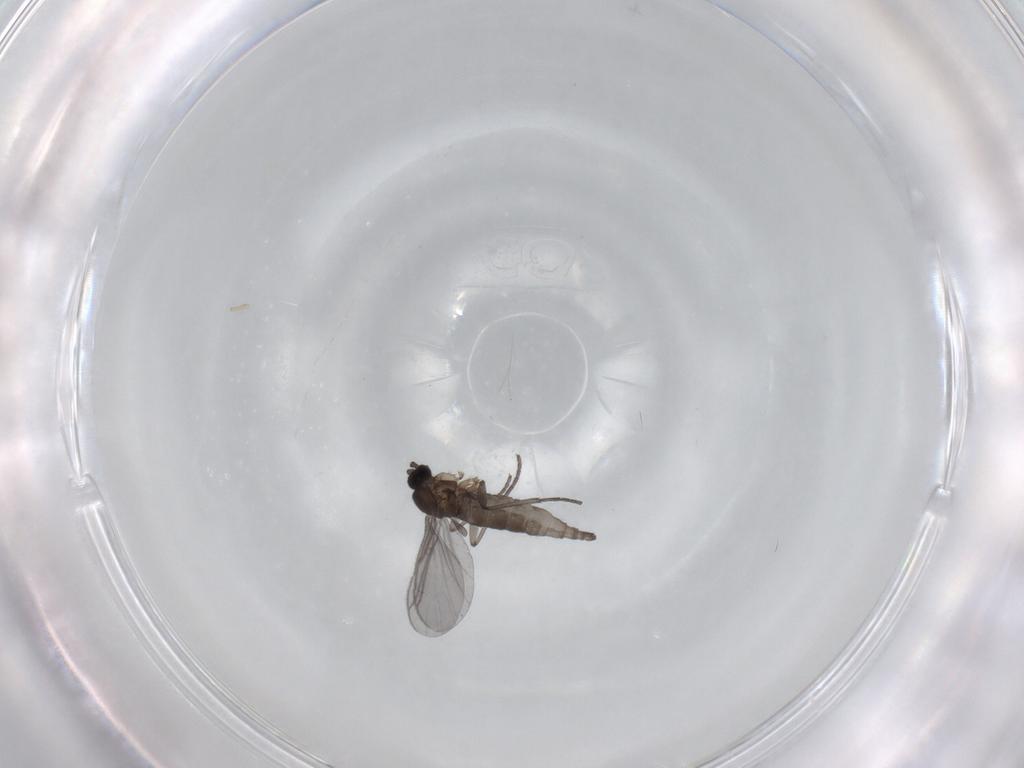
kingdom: Animalia
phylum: Arthropoda
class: Insecta
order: Diptera
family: Sciaridae
